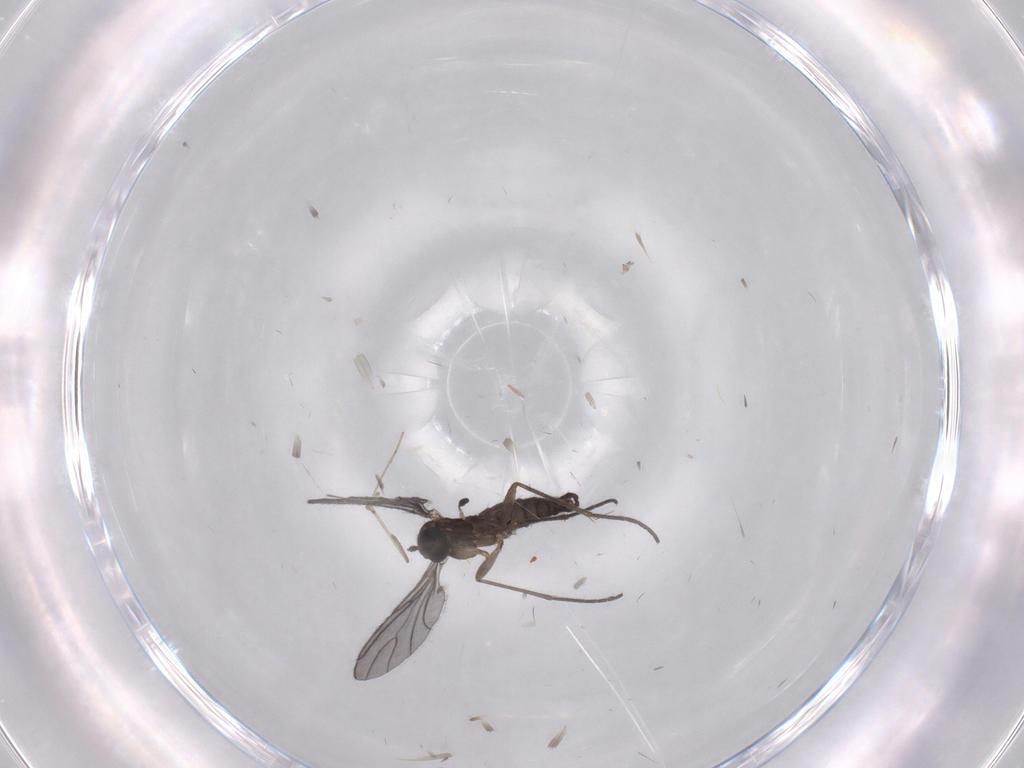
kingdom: Animalia
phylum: Arthropoda
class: Insecta
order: Diptera
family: Sciaridae
